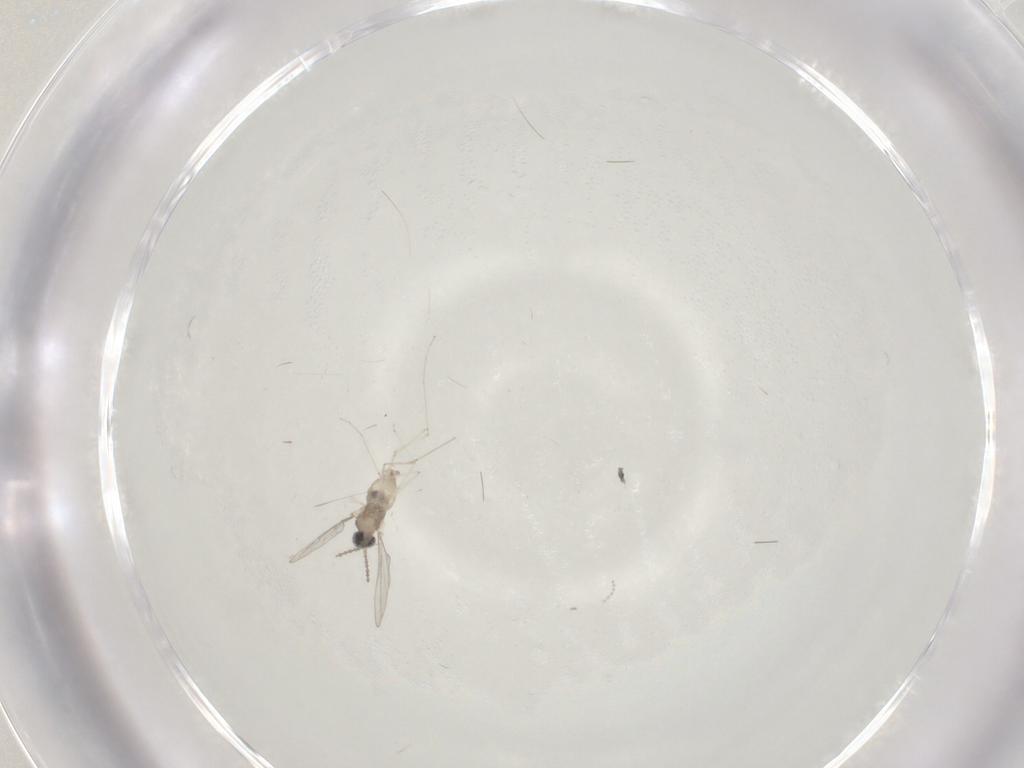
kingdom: Animalia
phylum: Arthropoda
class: Insecta
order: Diptera
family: Cecidomyiidae
